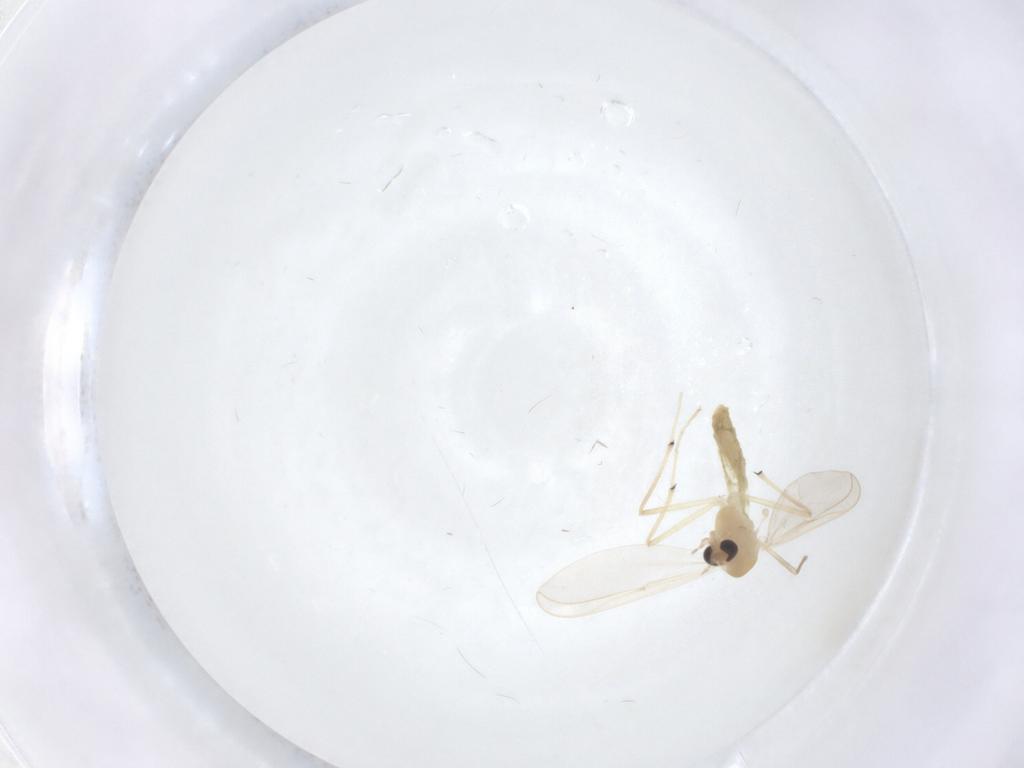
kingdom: Animalia
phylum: Arthropoda
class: Insecta
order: Diptera
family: Chironomidae
